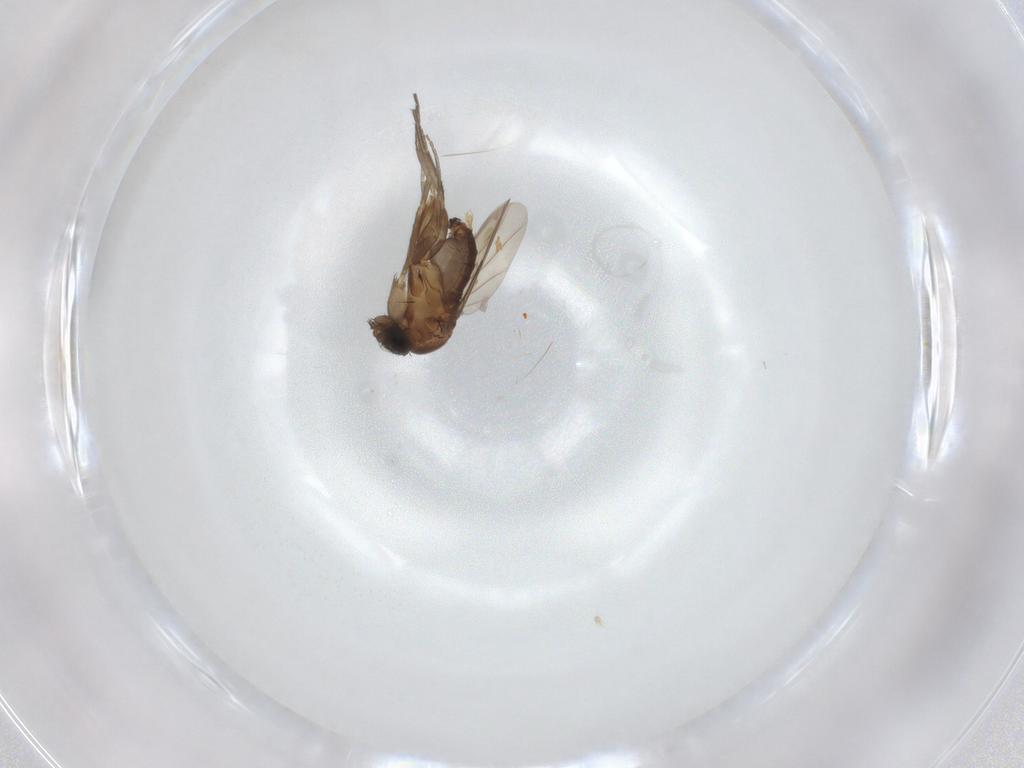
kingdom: Animalia
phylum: Arthropoda
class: Insecta
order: Diptera
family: Phoridae
